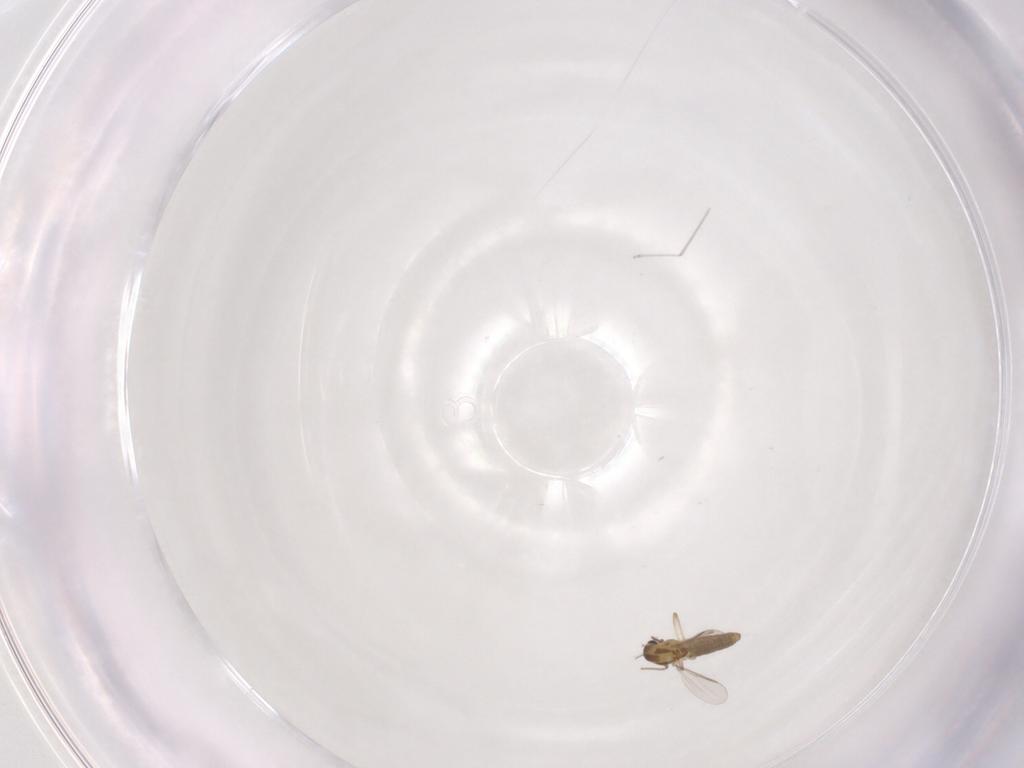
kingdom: Animalia
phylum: Arthropoda
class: Insecta
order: Diptera
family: Chironomidae
